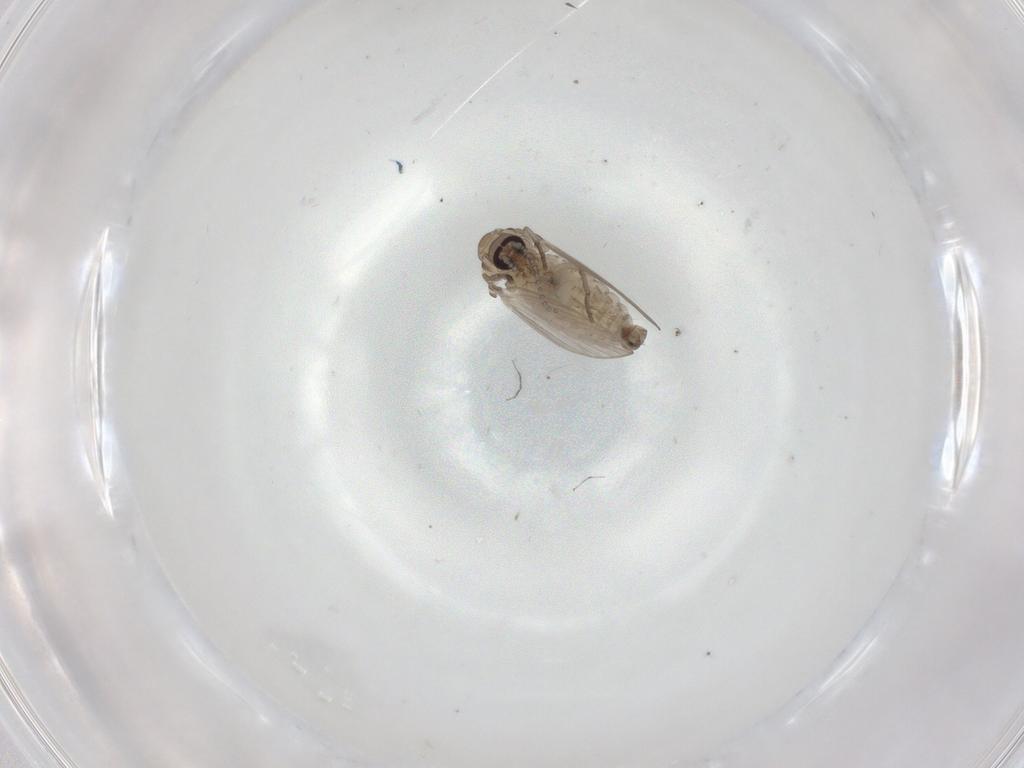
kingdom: Animalia
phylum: Arthropoda
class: Insecta
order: Diptera
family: Psychodidae
